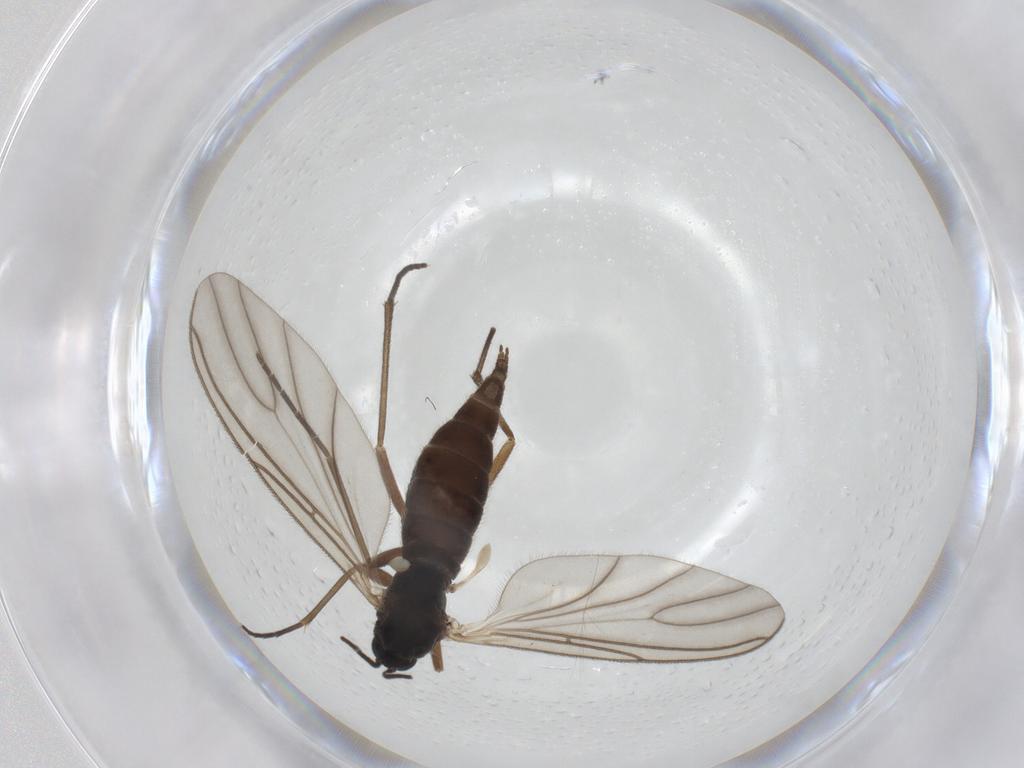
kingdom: Animalia
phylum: Arthropoda
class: Insecta
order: Diptera
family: Sciaridae
